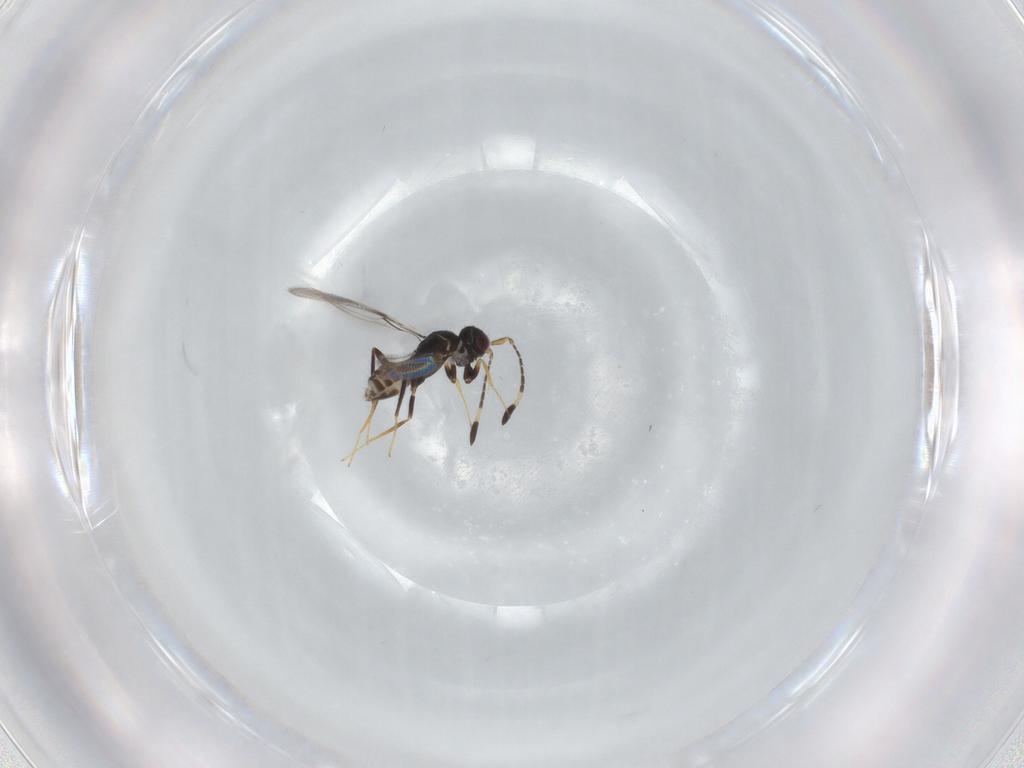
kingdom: Animalia
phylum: Arthropoda
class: Insecta
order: Hymenoptera
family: Mymaridae
